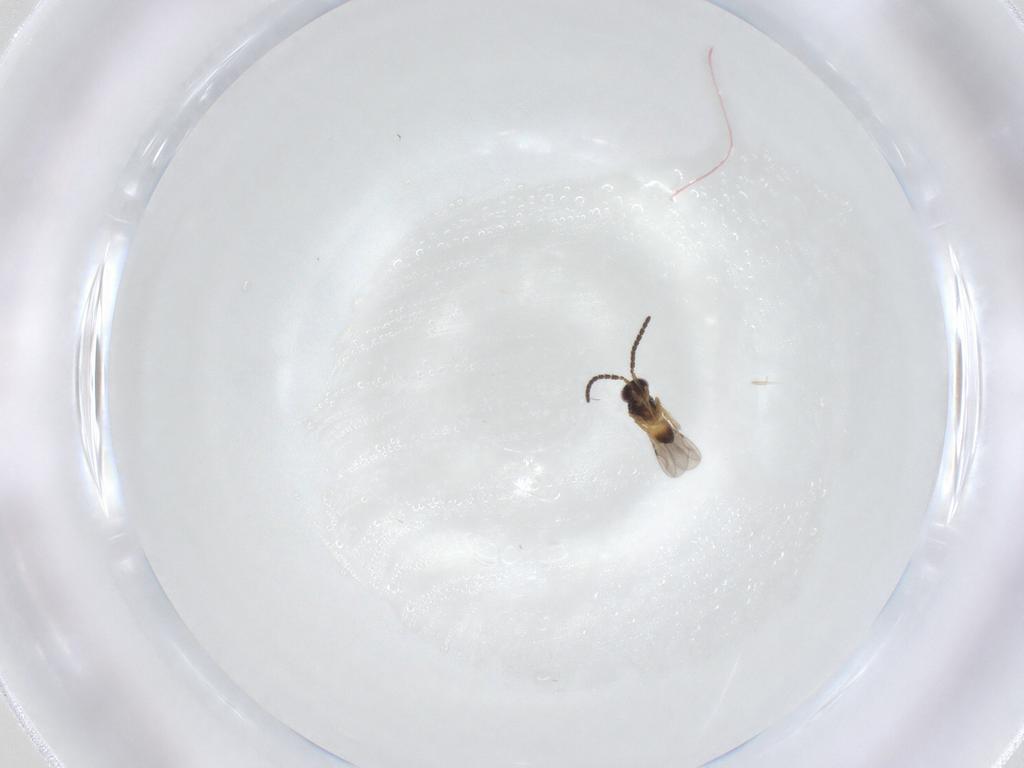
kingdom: Animalia
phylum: Arthropoda
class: Insecta
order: Hymenoptera
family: Ceraphronidae
